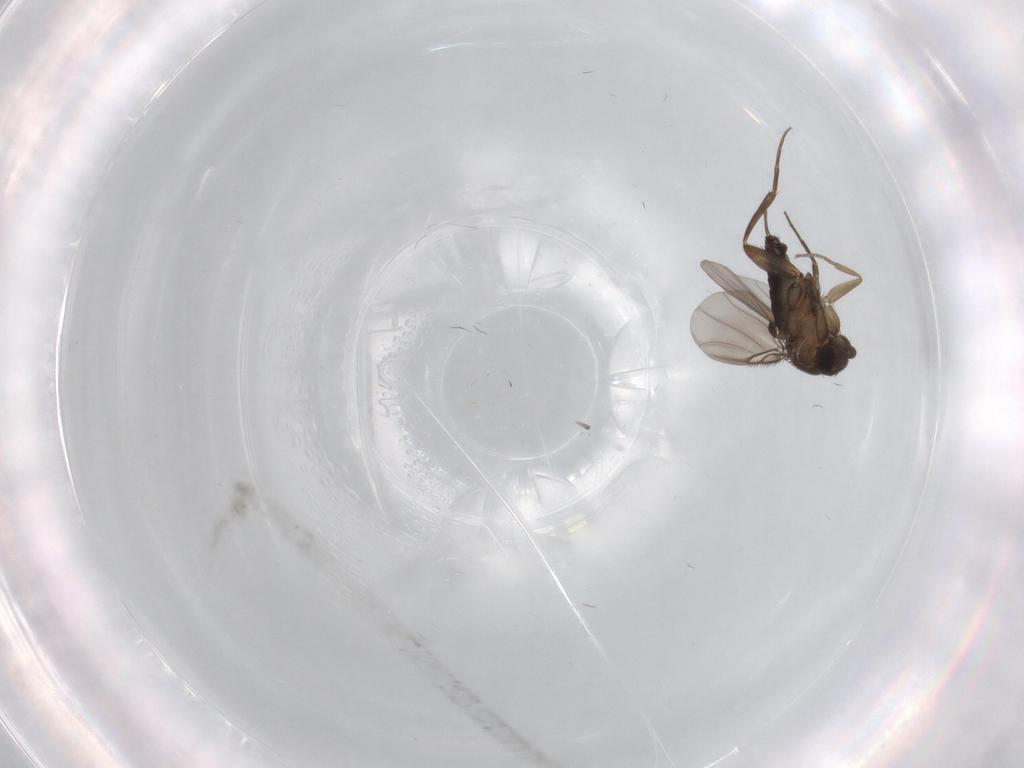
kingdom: Animalia
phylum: Arthropoda
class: Insecta
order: Diptera
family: Phoridae
